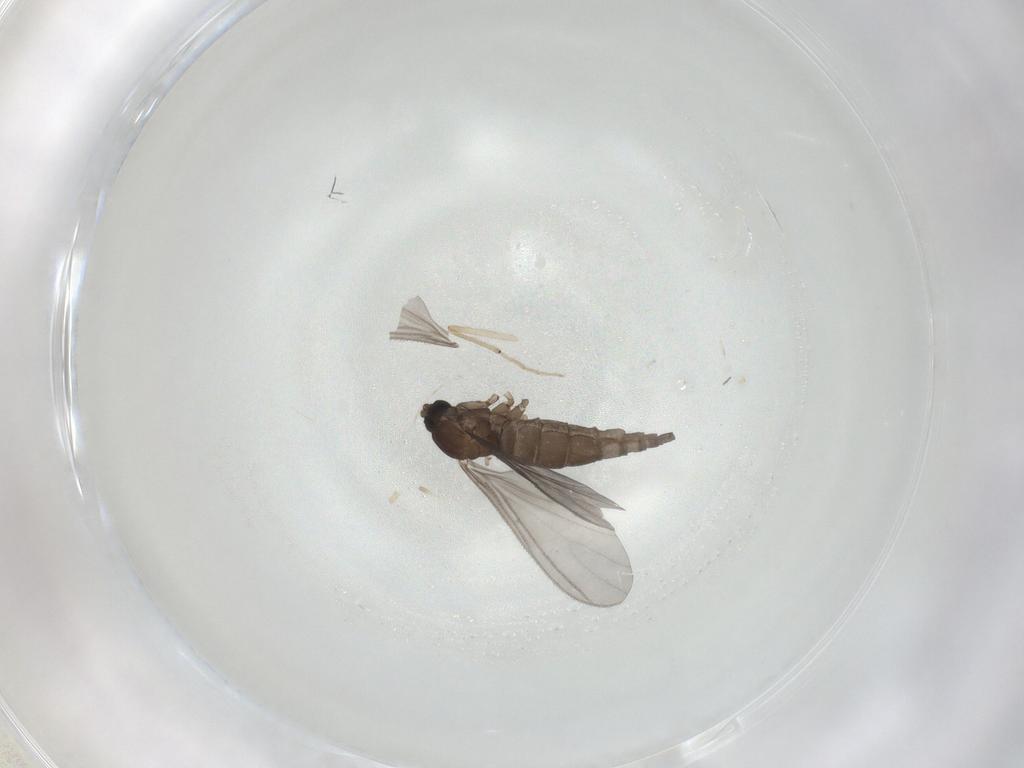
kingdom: Animalia
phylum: Arthropoda
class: Insecta
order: Diptera
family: Sciaridae
